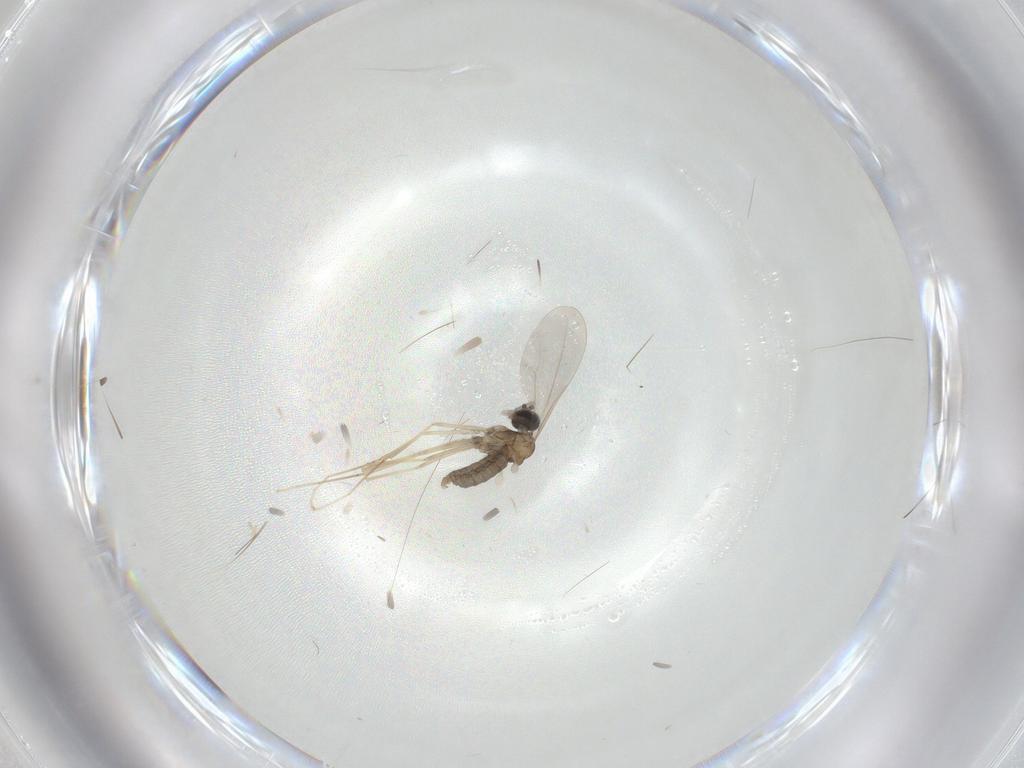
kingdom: Animalia
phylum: Arthropoda
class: Insecta
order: Diptera
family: Cecidomyiidae
